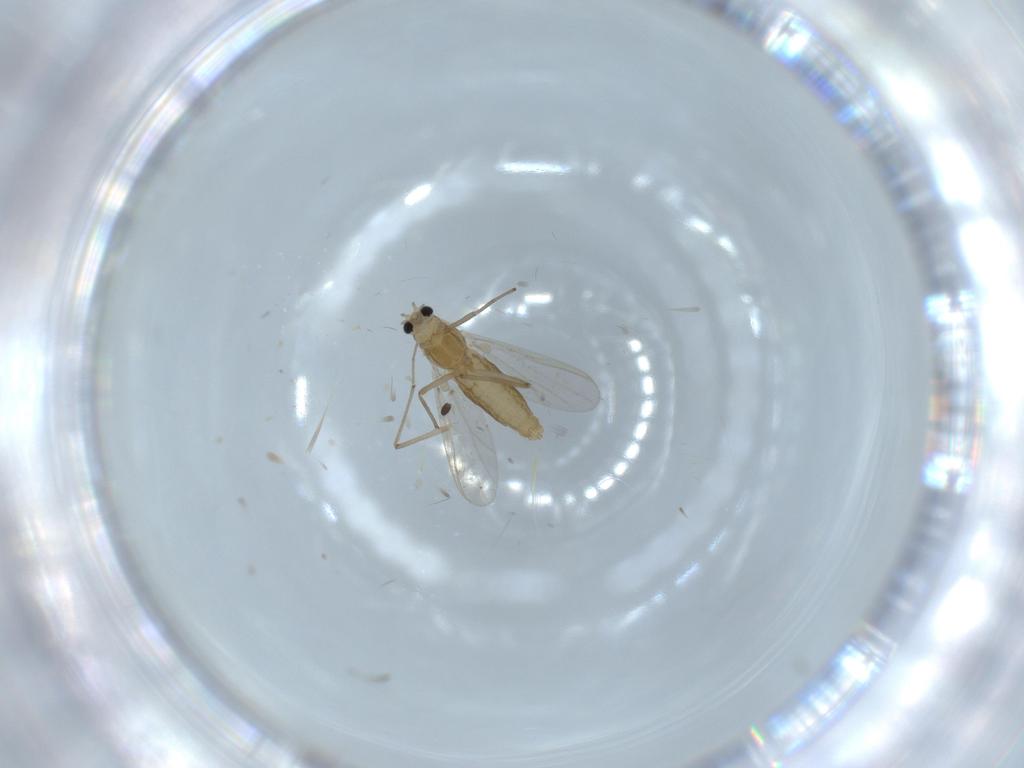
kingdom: Animalia
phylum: Arthropoda
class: Insecta
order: Diptera
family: Chironomidae
